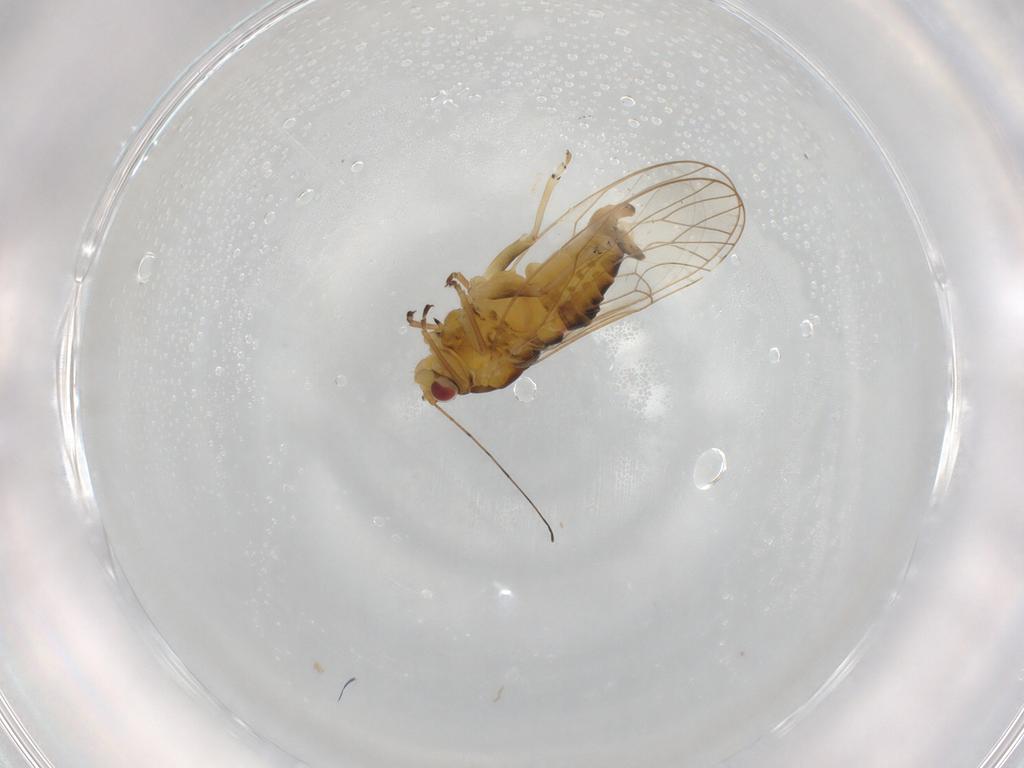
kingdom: Animalia
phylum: Arthropoda
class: Insecta
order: Hemiptera
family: Psyllidae
